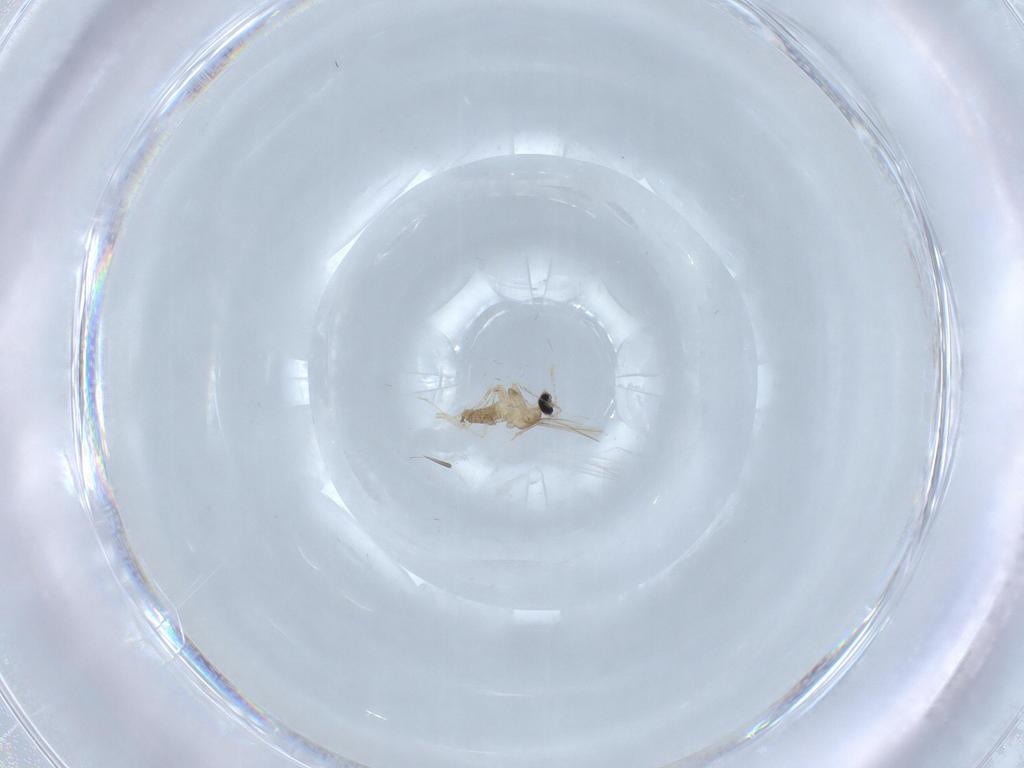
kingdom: Animalia
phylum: Arthropoda
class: Insecta
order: Diptera
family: Cecidomyiidae
